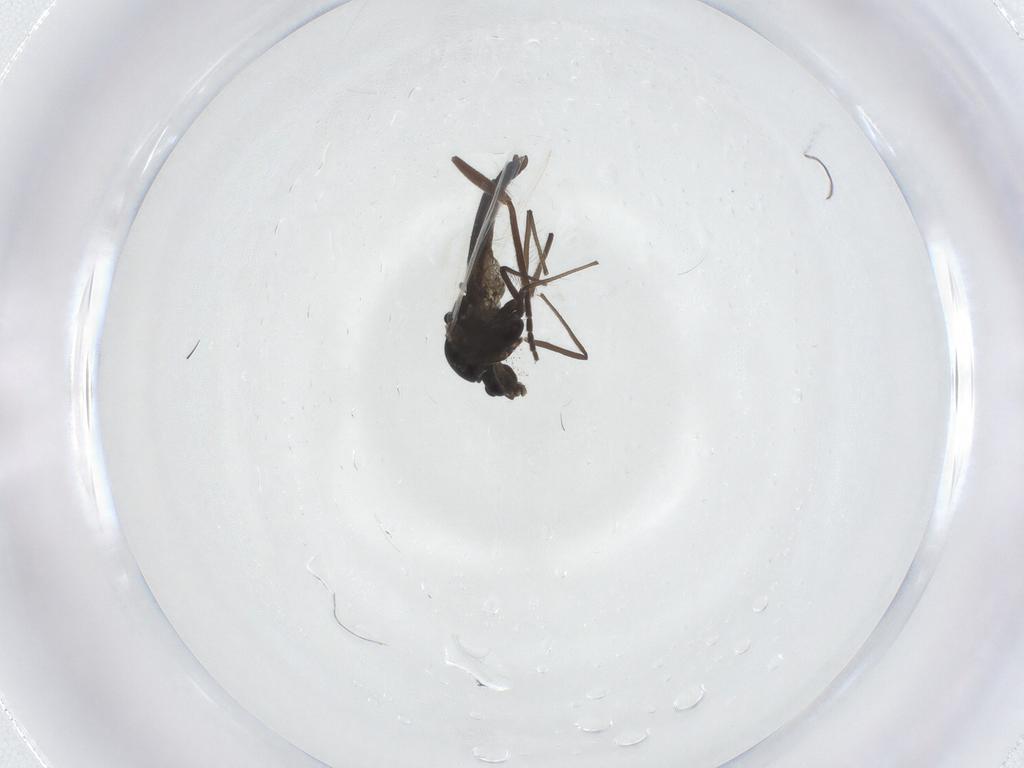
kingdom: Animalia
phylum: Arthropoda
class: Insecta
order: Diptera
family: Sciaridae
